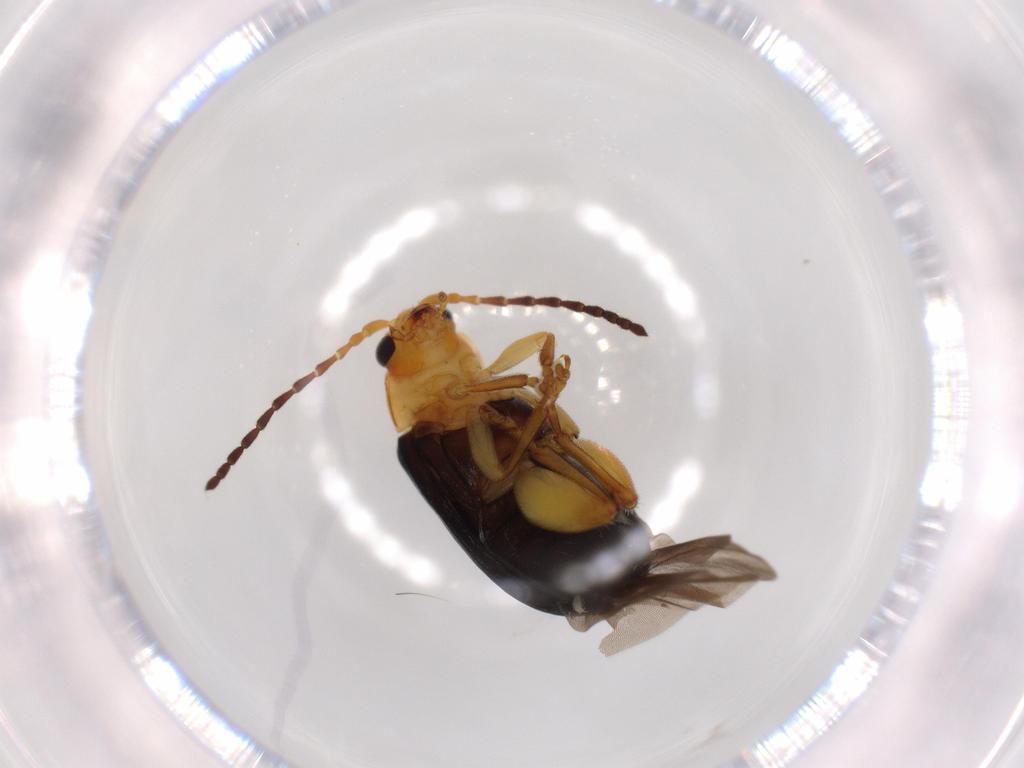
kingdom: Animalia
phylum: Arthropoda
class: Insecta
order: Coleoptera
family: Chrysomelidae
